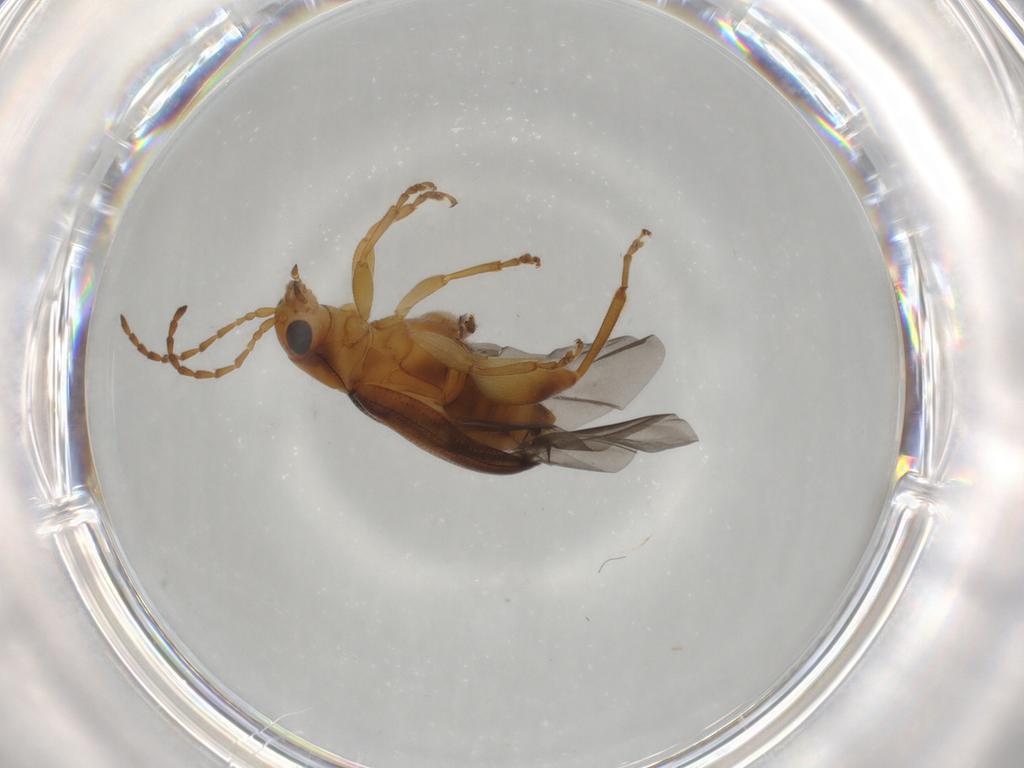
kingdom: Animalia
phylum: Arthropoda
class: Insecta
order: Coleoptera
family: Chrysomelidae
